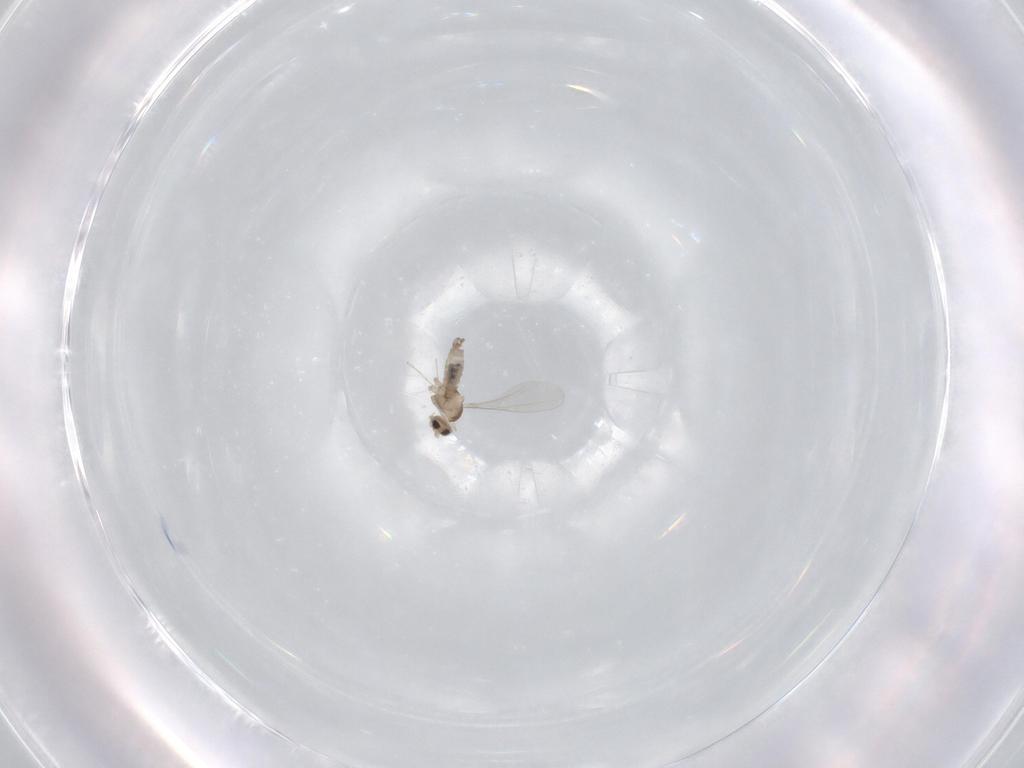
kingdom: Animalia
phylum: Arthropoda
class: Insecta
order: Diptera
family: Cecidomyiidae
